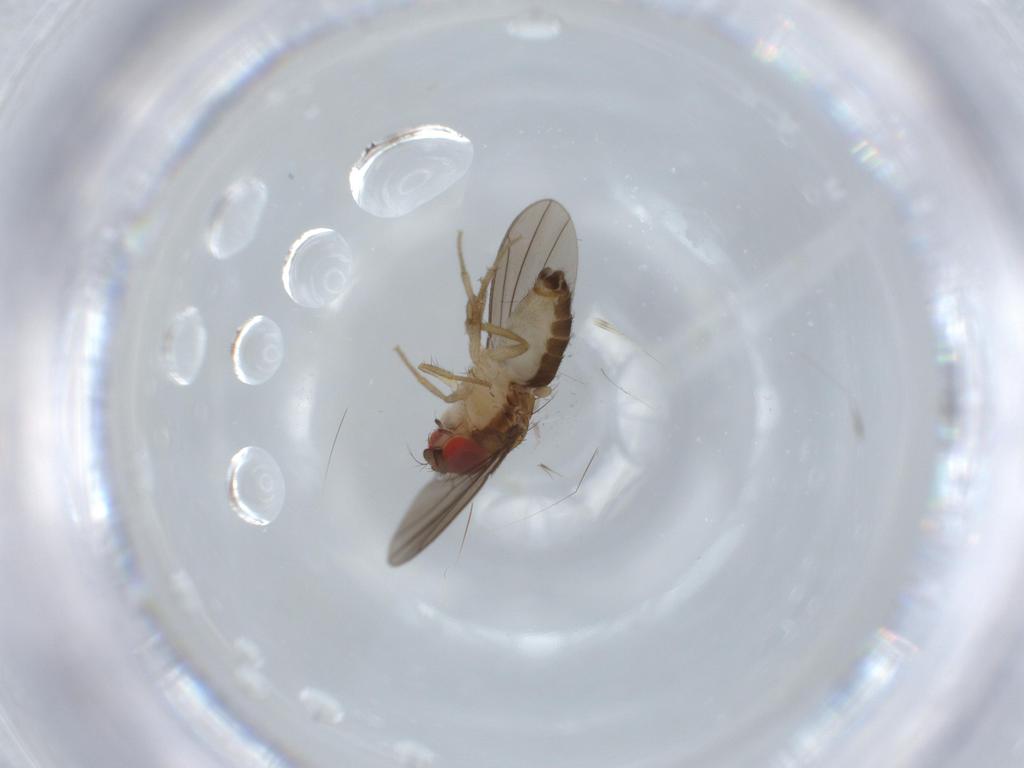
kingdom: Animalia
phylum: Arthropoda
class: Insecta
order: Diptera
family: Drosophilidae
